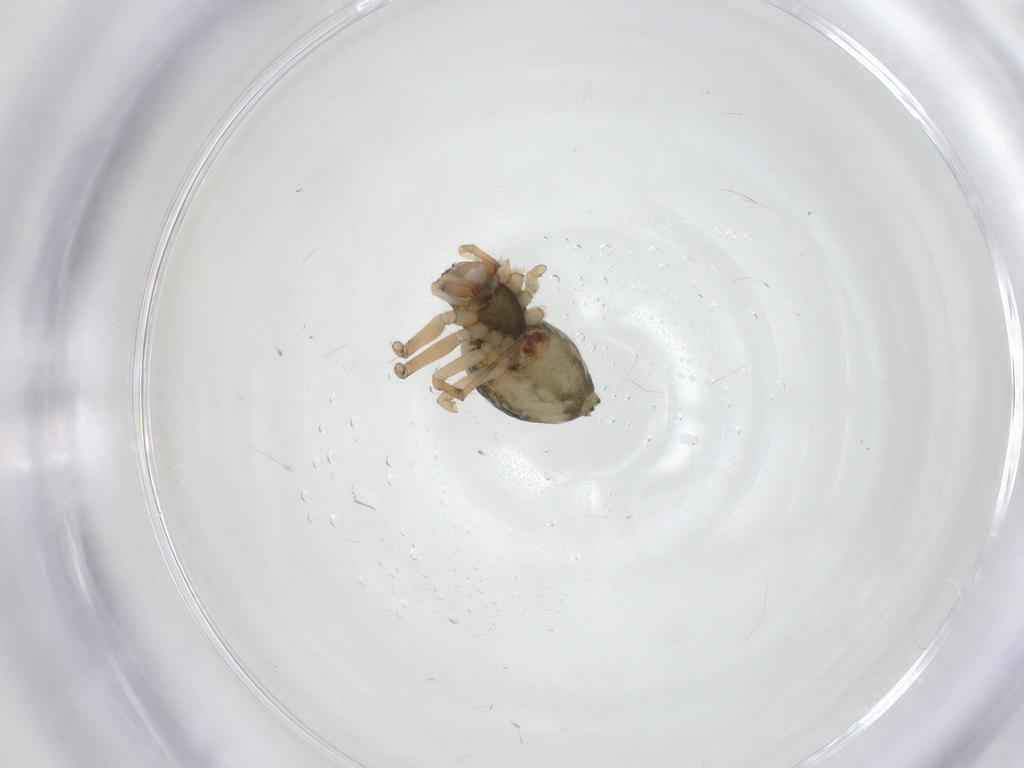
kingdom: Animalia
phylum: Arthropoda
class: Arachnida
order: Araneae
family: Theridiidae
